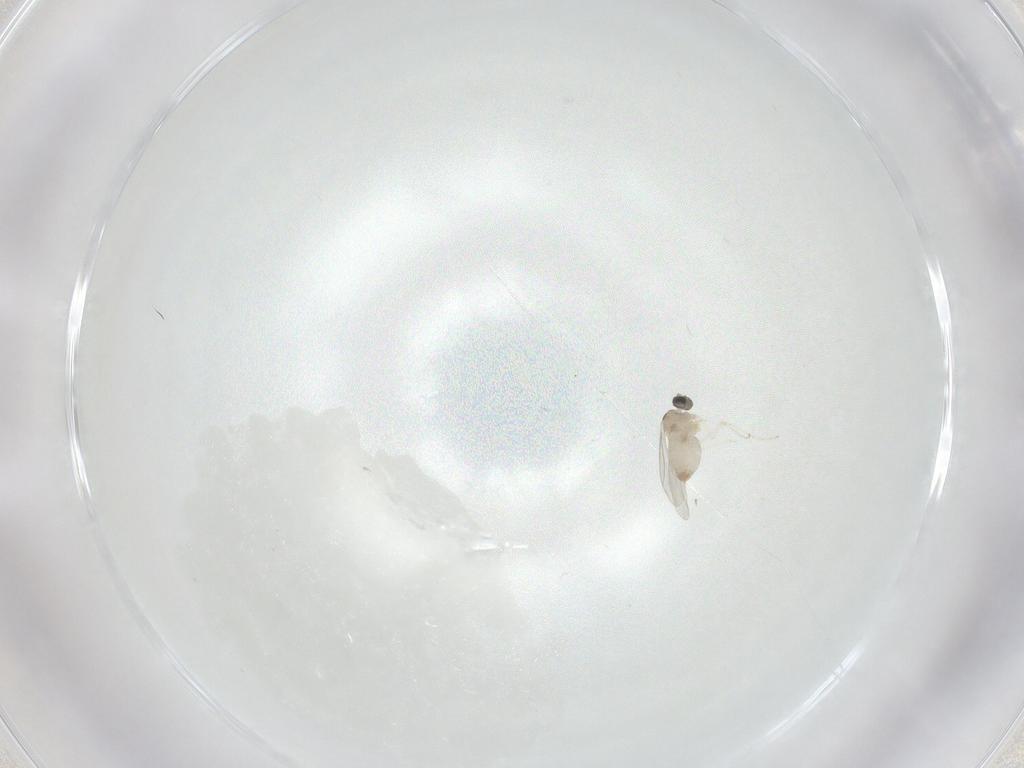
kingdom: Animalia
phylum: Arthropoda
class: Insecta
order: Diptera
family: Cecidomyiidae
